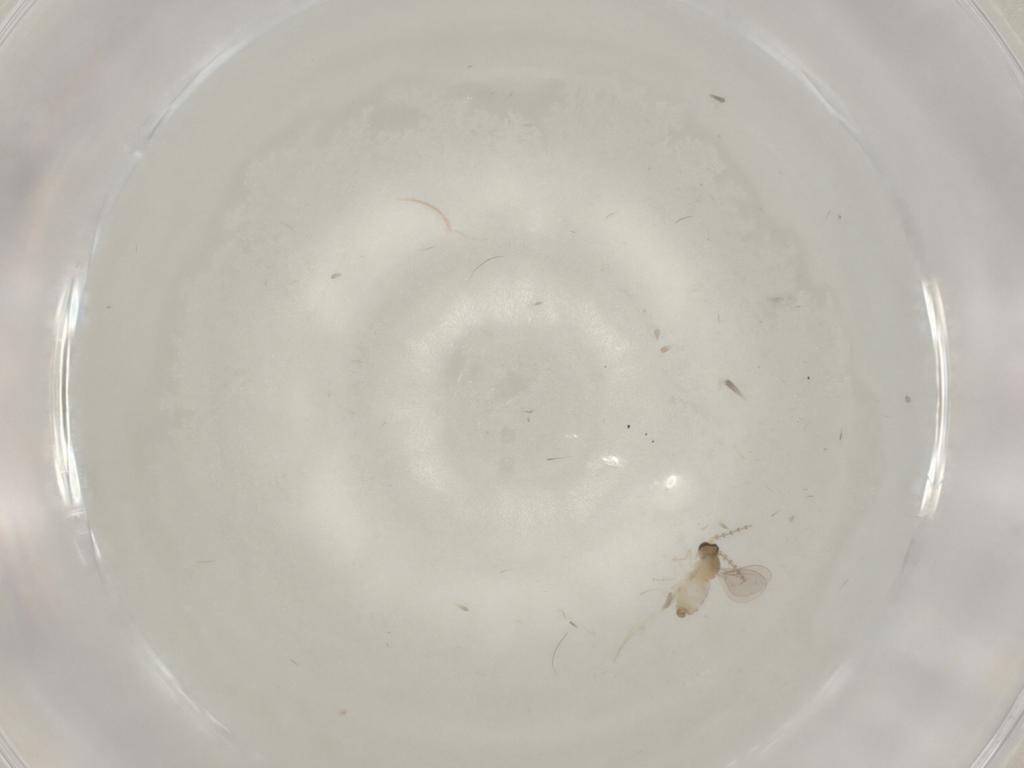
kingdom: Animalia
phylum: Arthropoda
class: Insecta
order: Diptera
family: Cecidomyiidae
